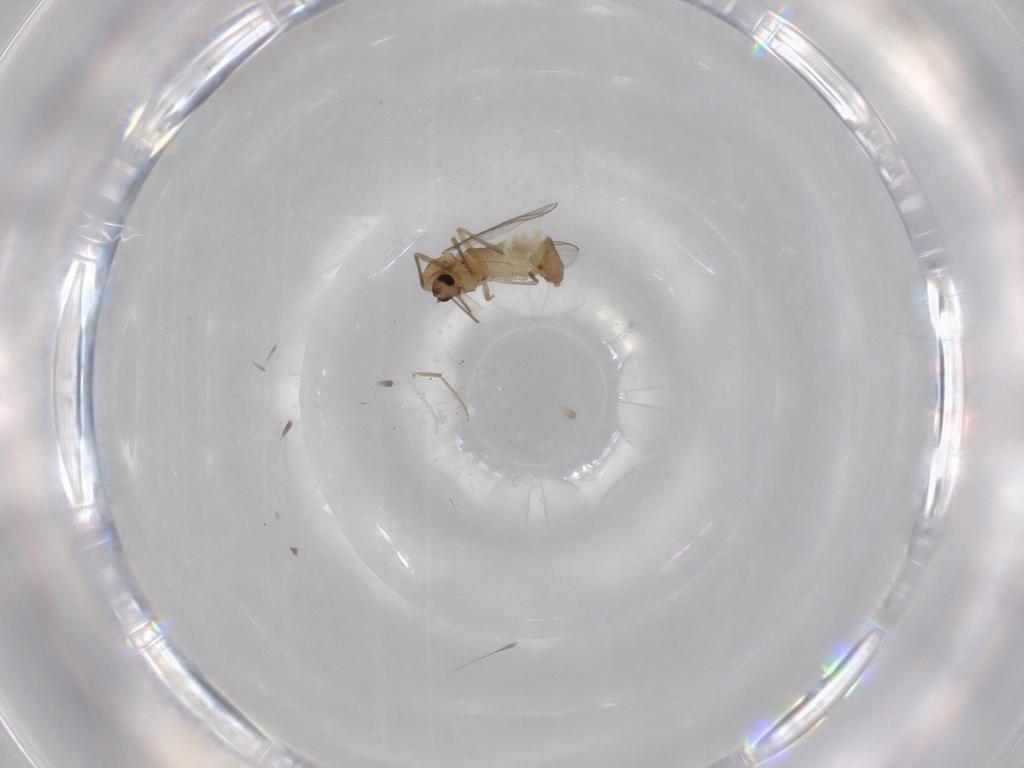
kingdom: Animalia
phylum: Arthropoda
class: Insecta
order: Diptera
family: Chironomidae
